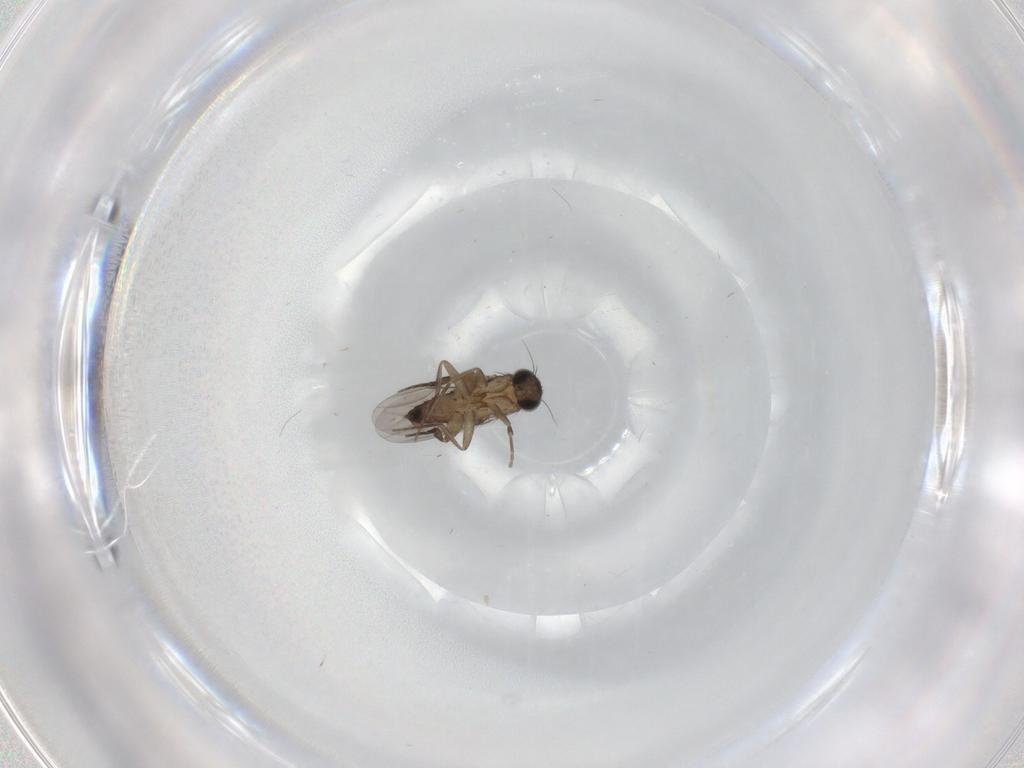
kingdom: Animalia
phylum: Arthropoda
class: Insecta
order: Diptera
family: Phoridae
